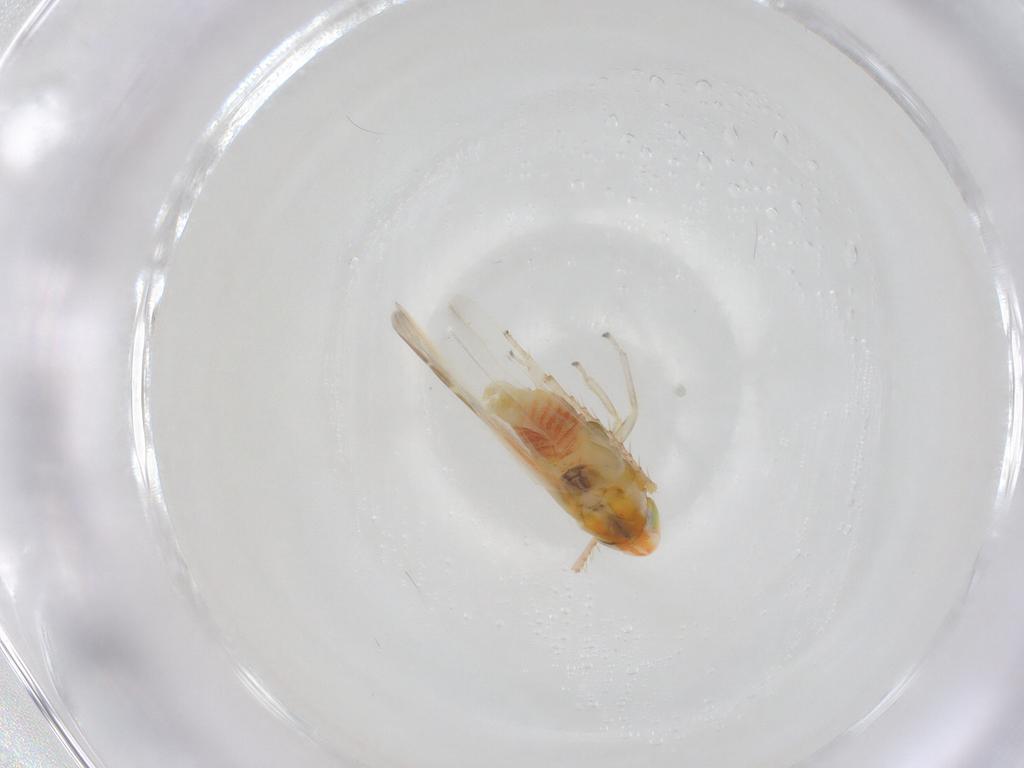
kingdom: Animalia
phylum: Arthropoda
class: Insecta
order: Hemiptera
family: Cicadellidae
